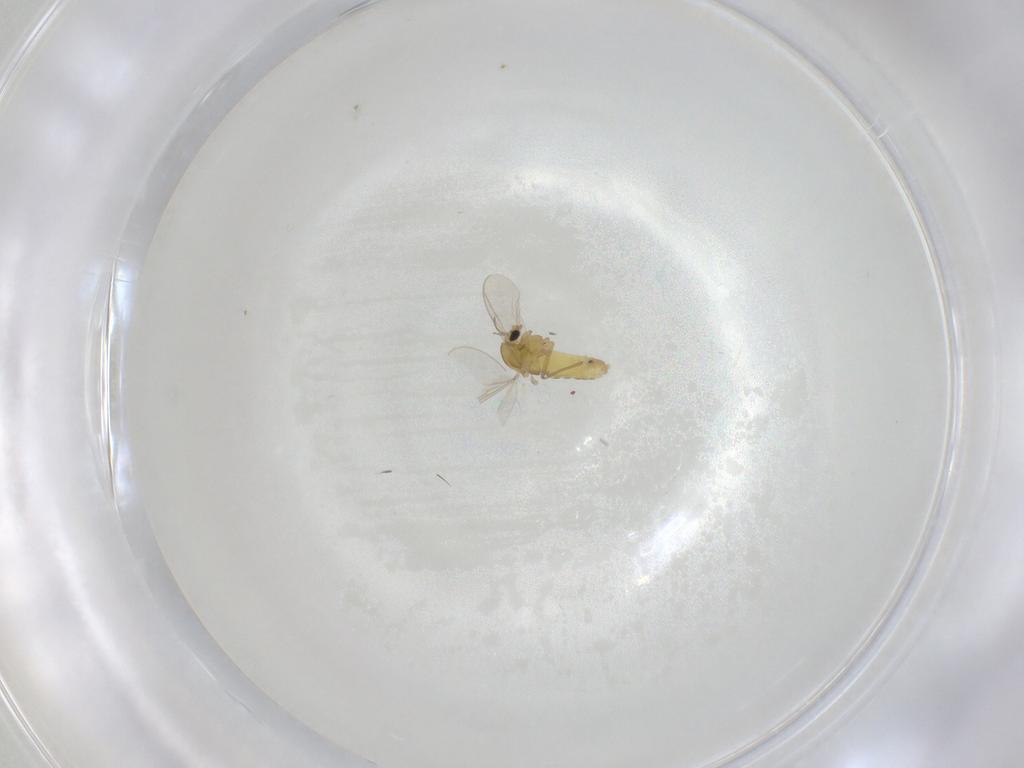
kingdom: Animalia
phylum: Arthropoda
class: Insecta
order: Diptera
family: Chironomidae
